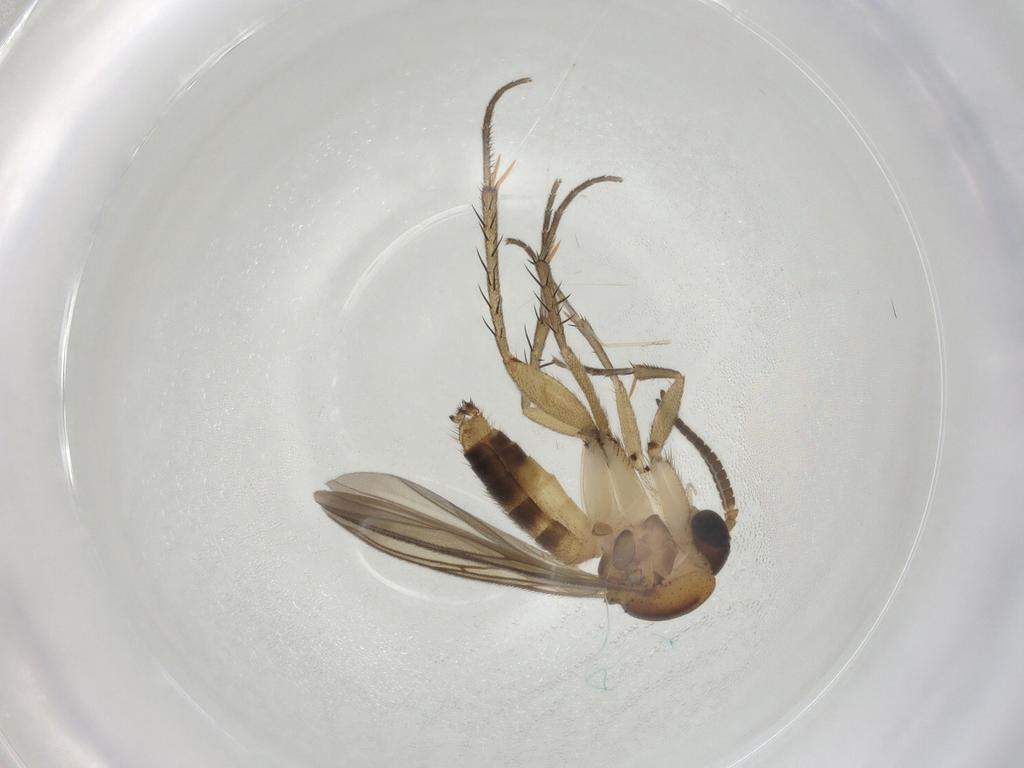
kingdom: Animalia
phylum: Arthropoda
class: Insecta
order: Diptera
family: Mycetophilidae
